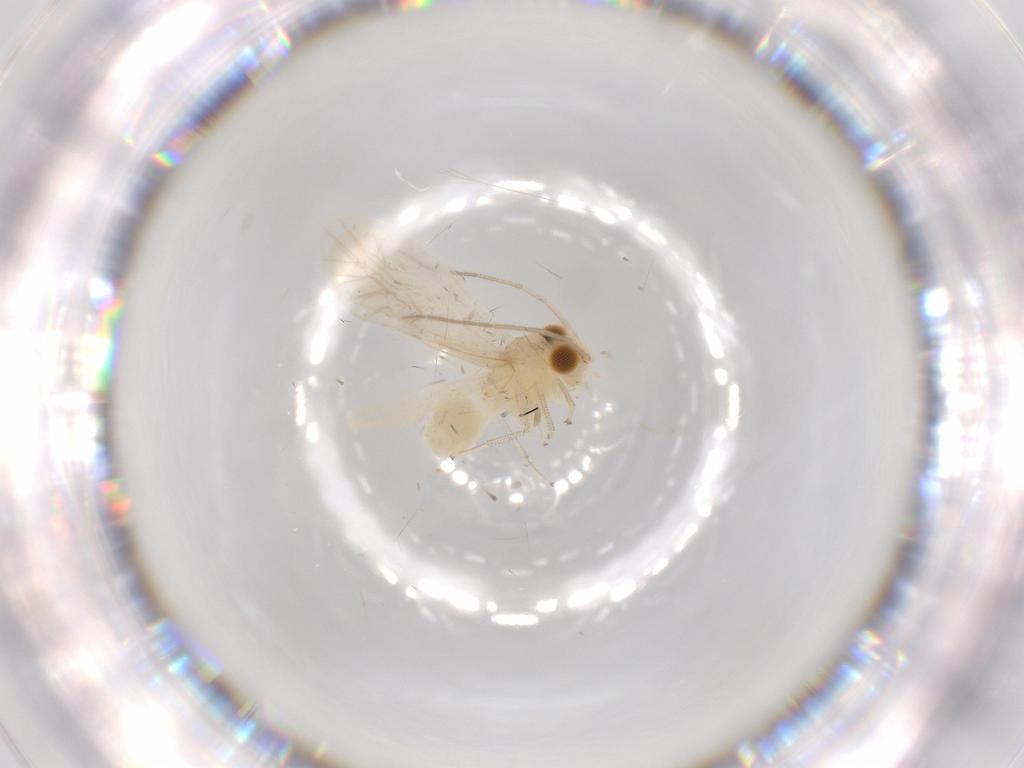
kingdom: Animalia
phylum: Arthropoda
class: Insecta
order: Psocodea
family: Caeciliusidae
